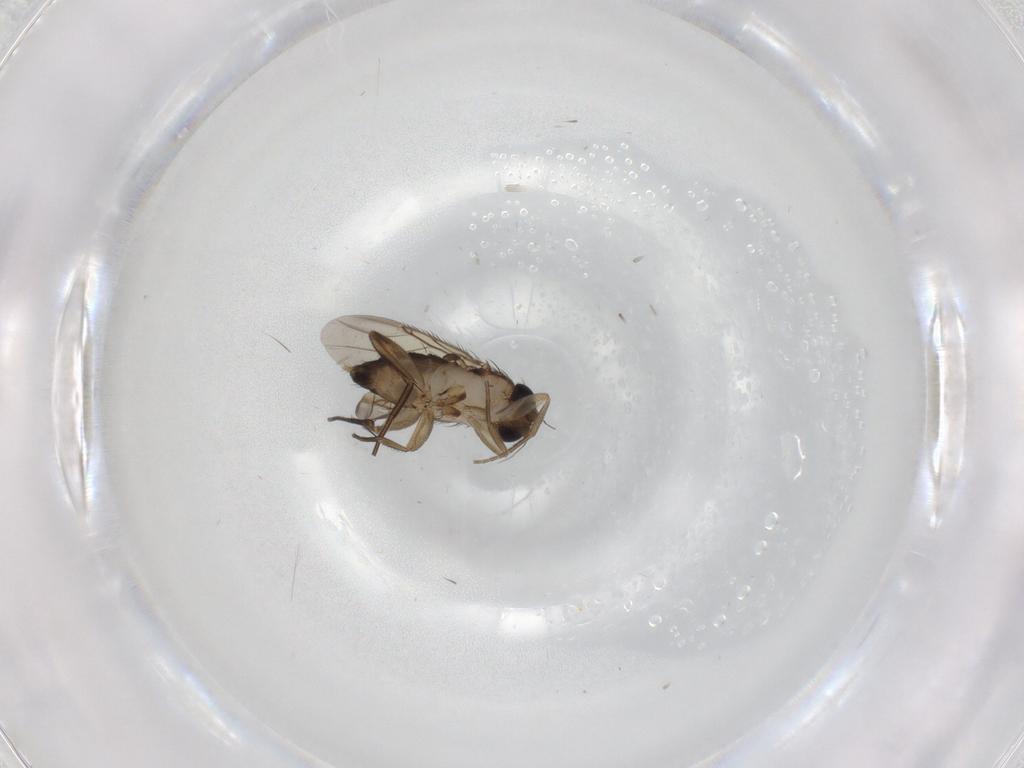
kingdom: Animalia
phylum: Arthropoda
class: Insecta
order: Diptera
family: Phoridae
